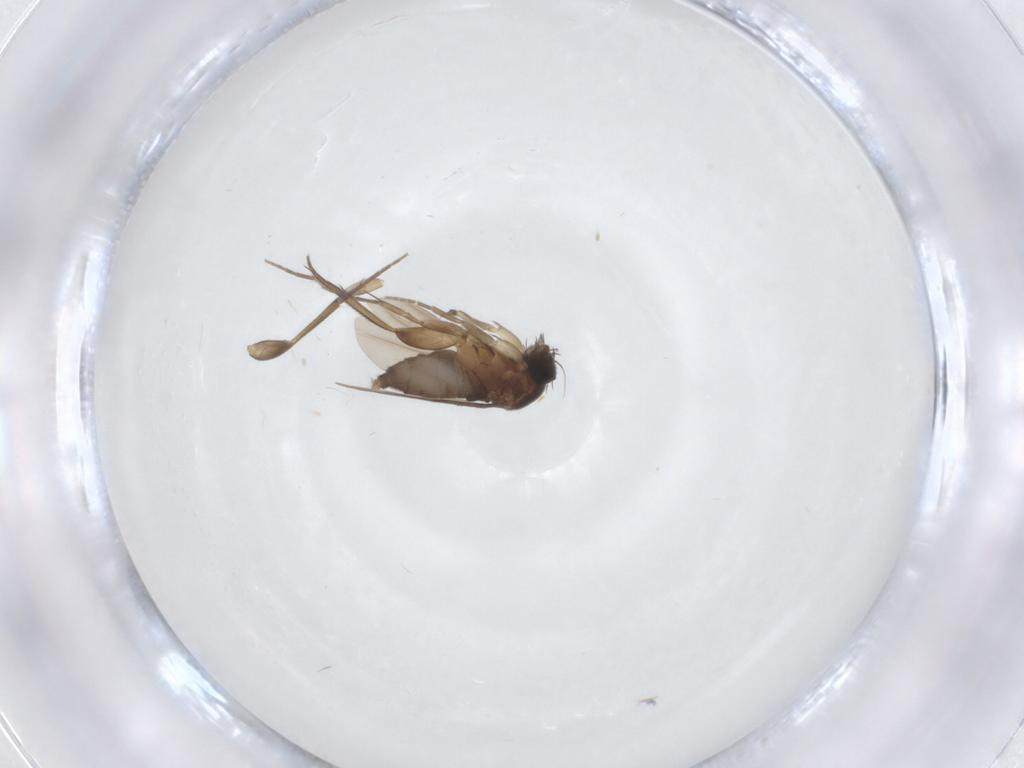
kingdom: Animalia
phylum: Arthropoda
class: Insecta
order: Diptera
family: Phoridae
